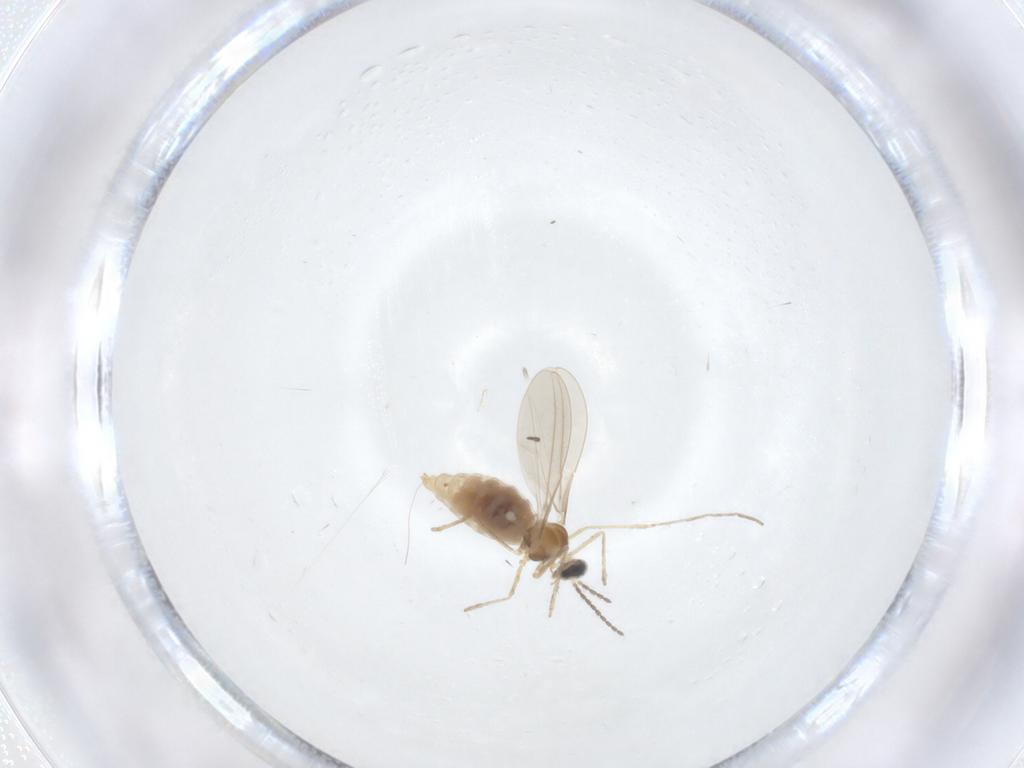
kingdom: Animalia
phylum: Arthropoda
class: Insecta
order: Diptera
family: Cecidomyiidae
